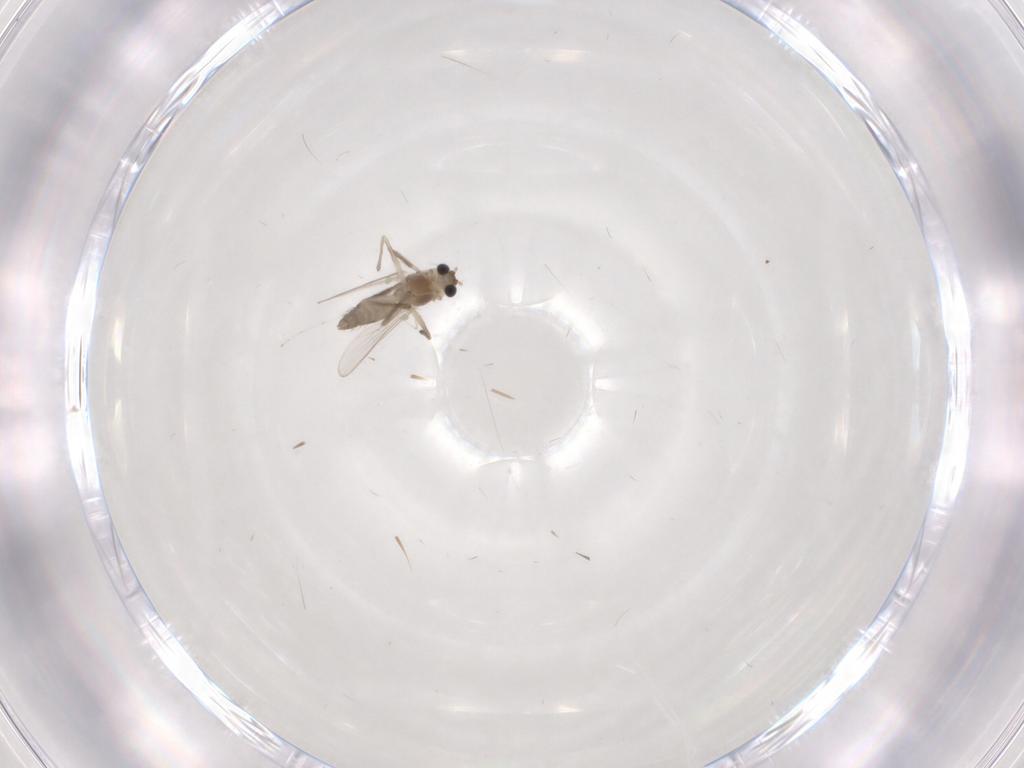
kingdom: Animalia
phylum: Arthropoda
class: Insecta
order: Diptera
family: Chironomidae
